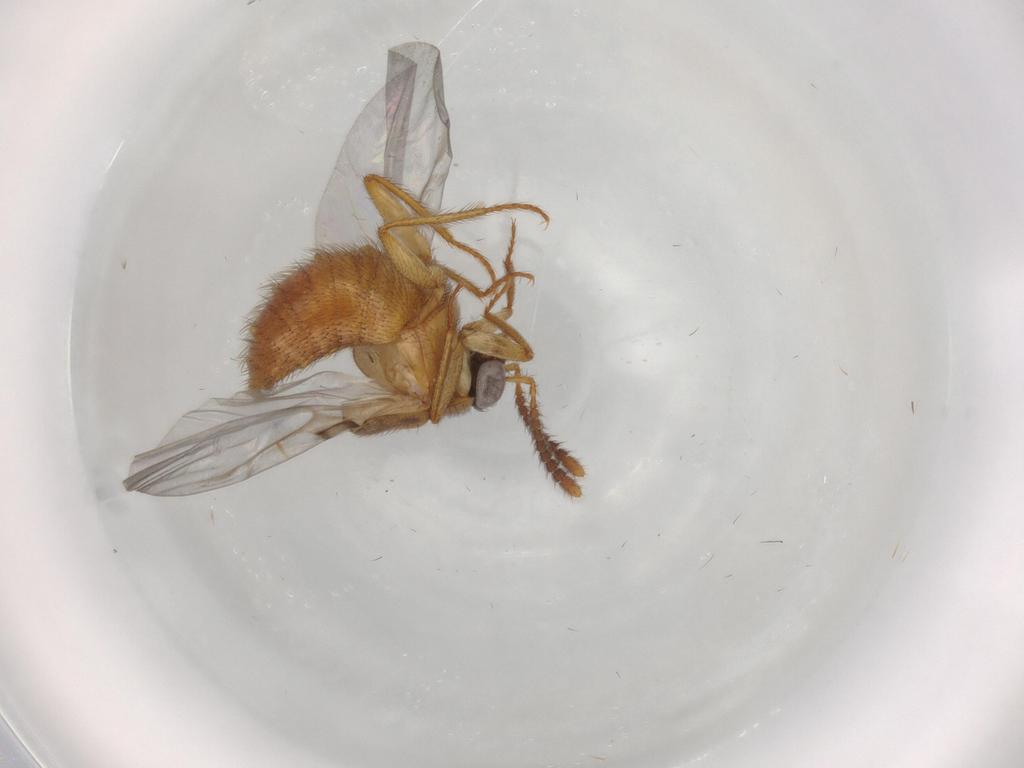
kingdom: Animalia
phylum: Arthropoda
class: Insecta
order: Coleoptera
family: Staphylinidae
